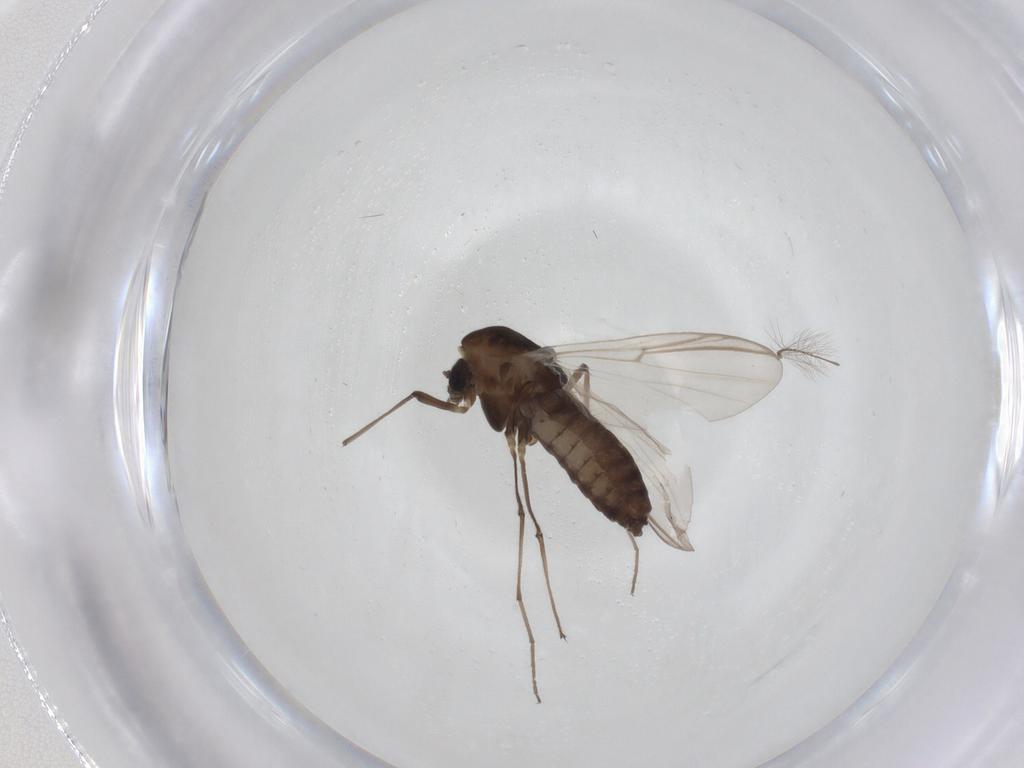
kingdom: Animalia
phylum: Arthropoda
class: Insecta
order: Diptera
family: Chironomidae
